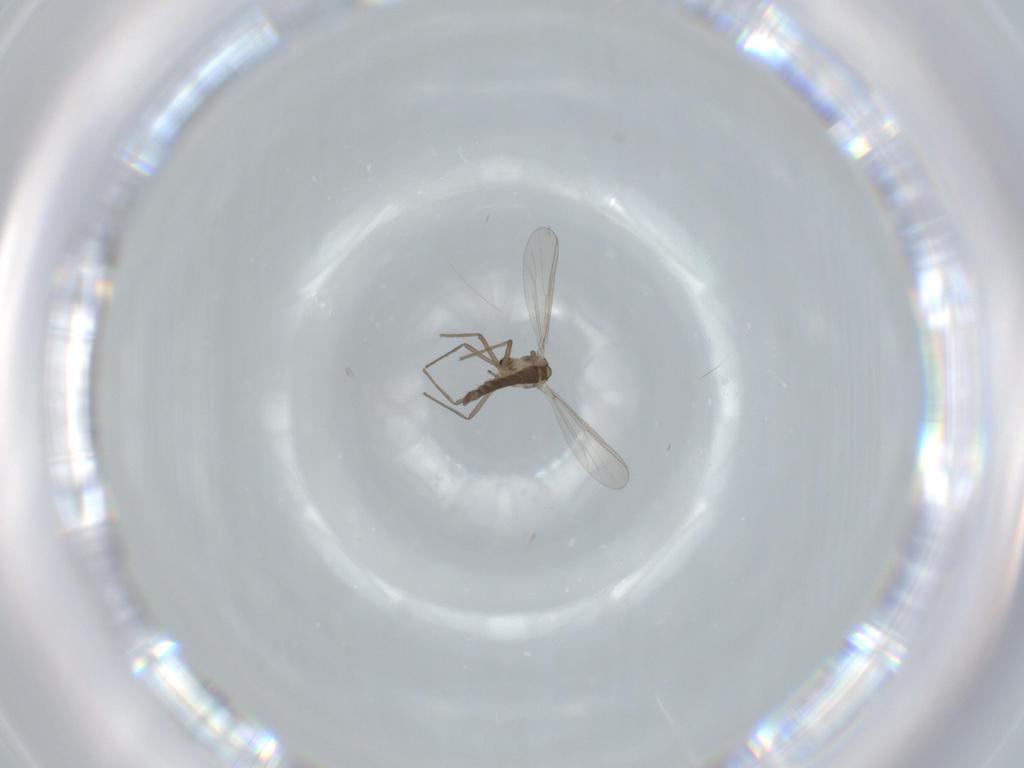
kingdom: Animalia
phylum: Arthropoda
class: Insecta
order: Diptera
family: Chironomidae
